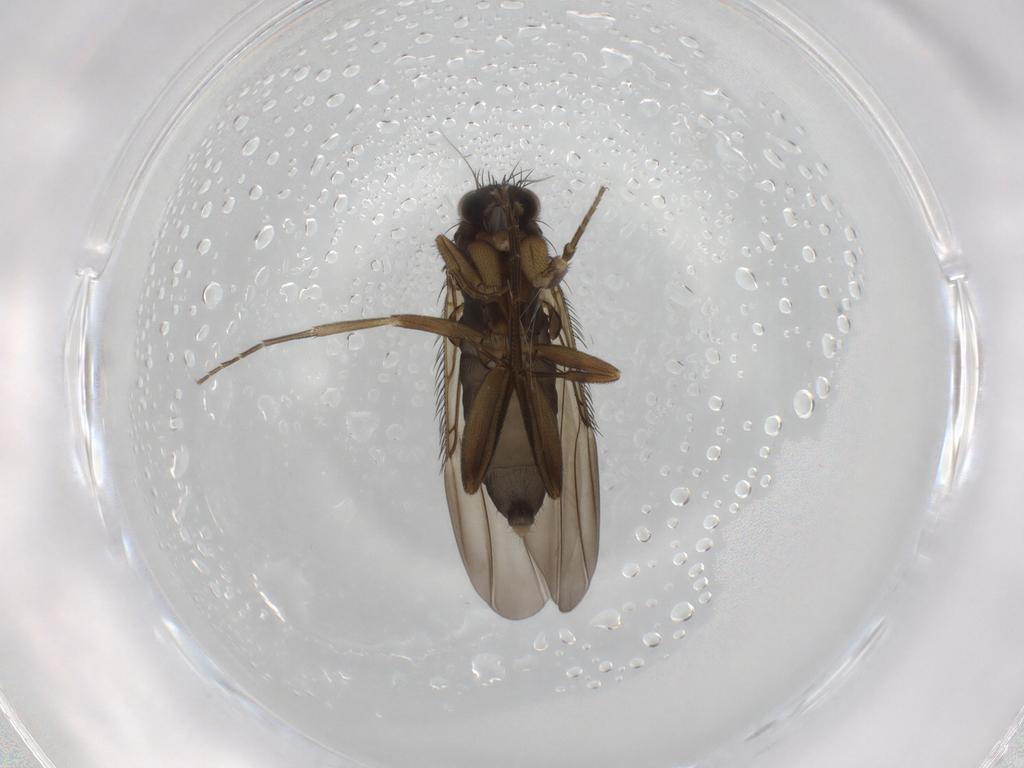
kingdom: Animalia
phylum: Arthropoda
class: Insecta
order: Diptera
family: Phoridae
